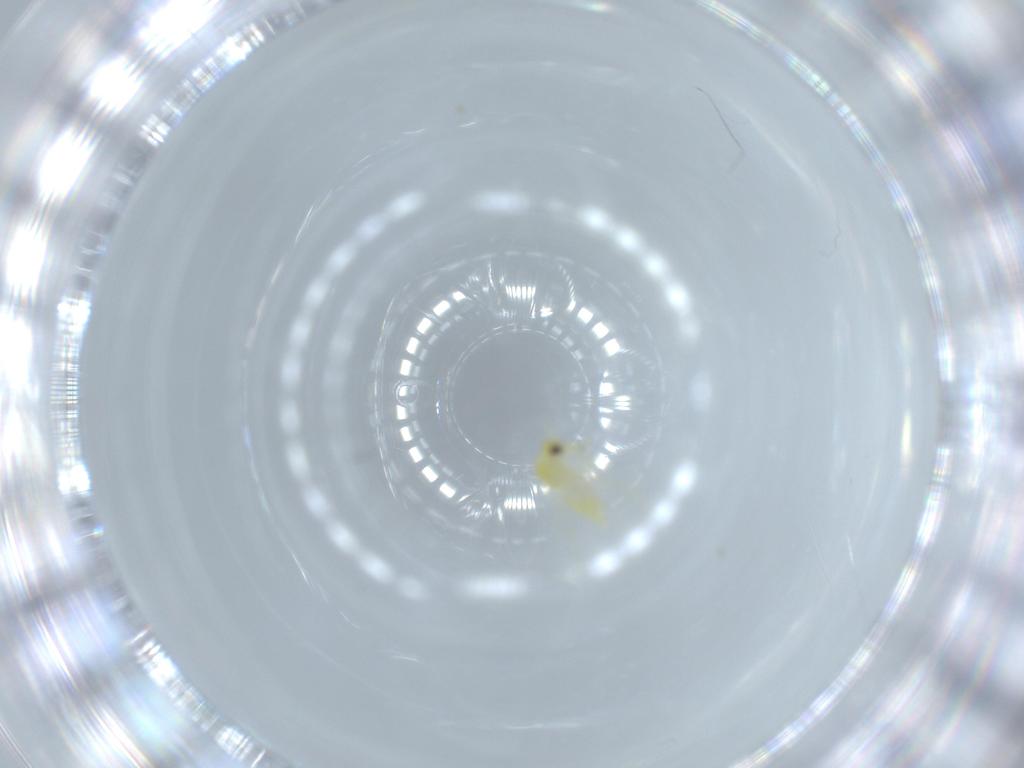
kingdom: Animalia
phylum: Arthropoda
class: Insecta
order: Hemiptera
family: Aleyrodidae
